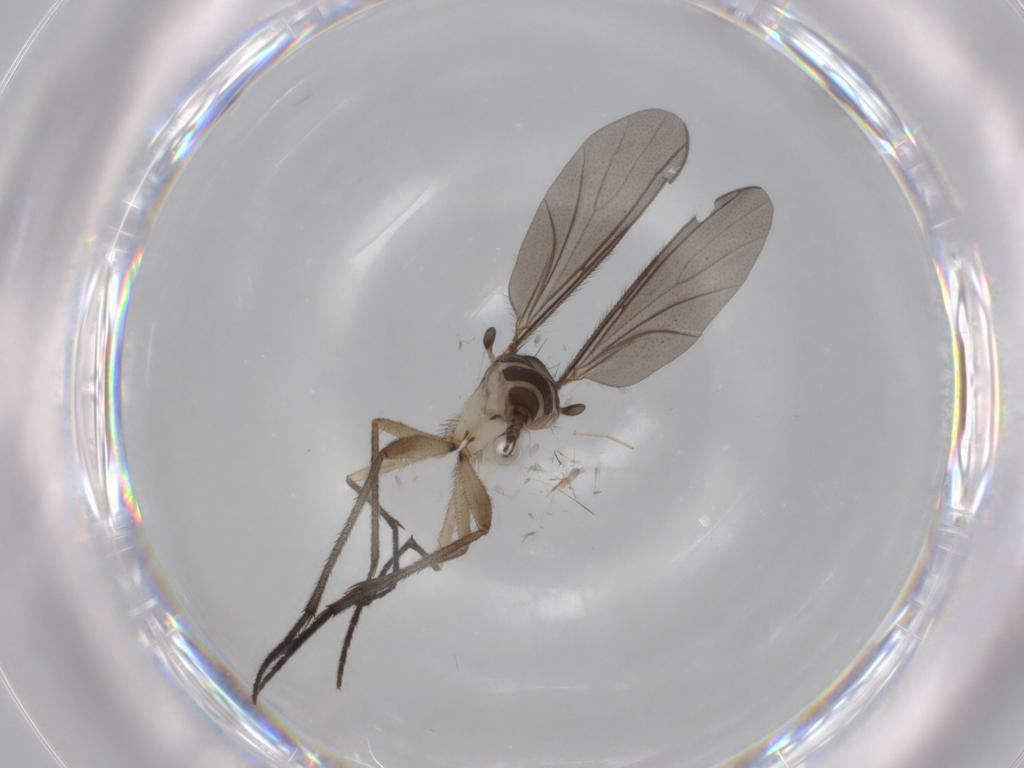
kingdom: Animalia
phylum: Arthropoda
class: Insecta
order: Diptera
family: Sciaridae
